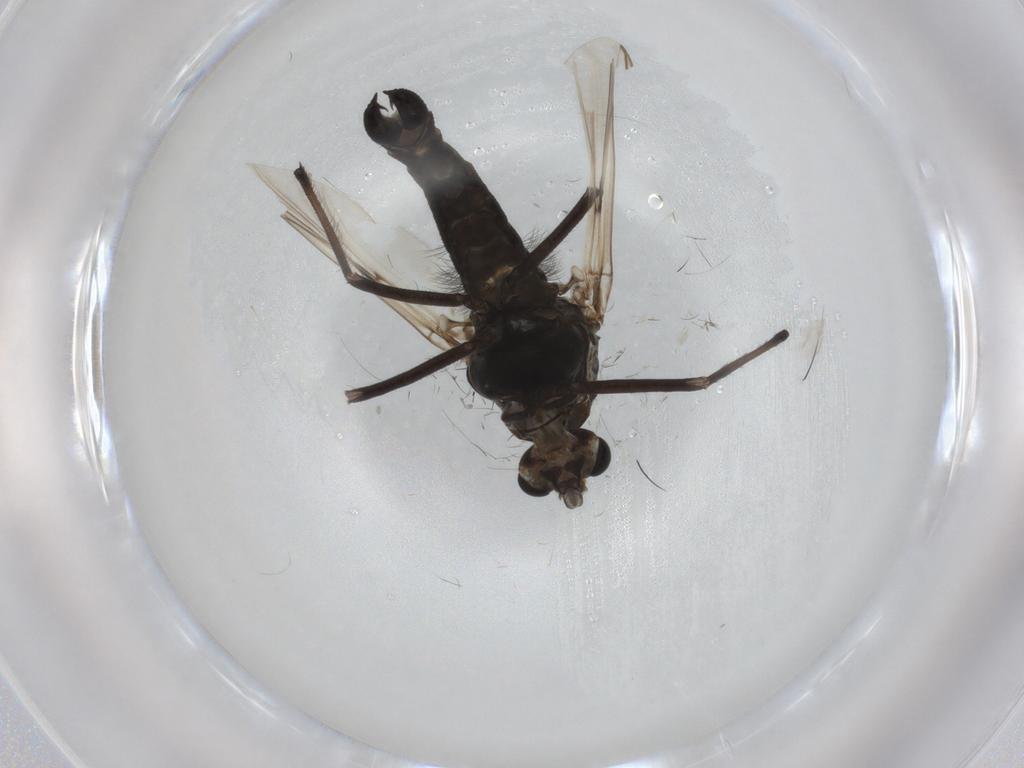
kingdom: Animalia
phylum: Arthropoda
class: Insecta
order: Diptera
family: Chironomidae
